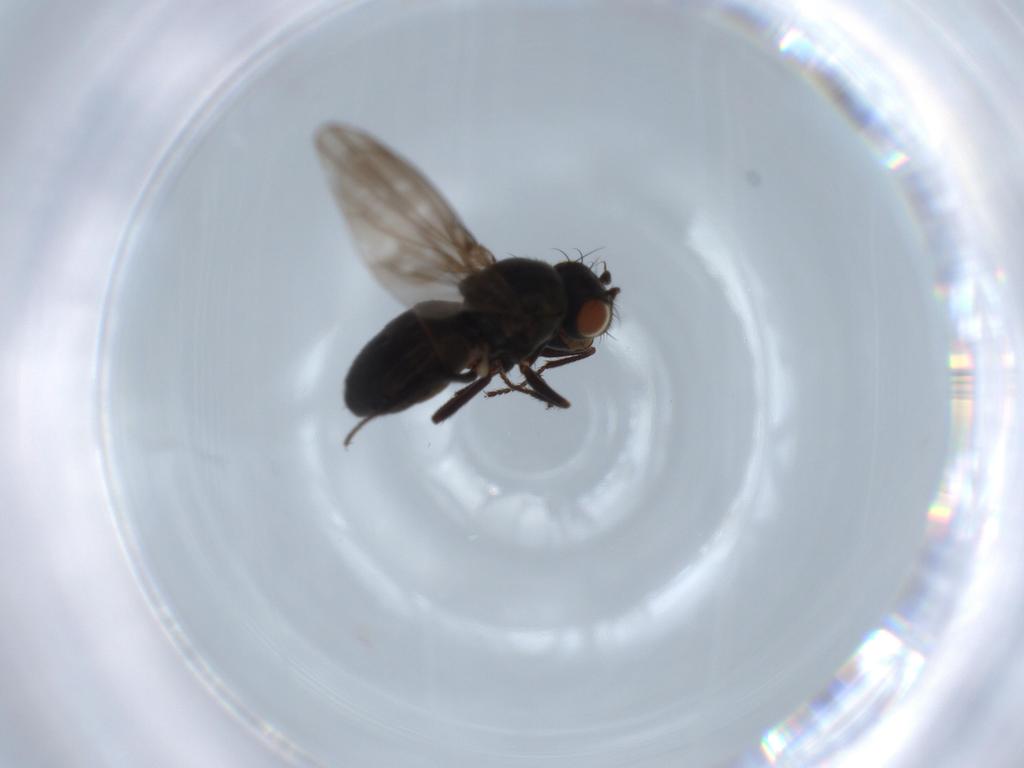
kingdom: Animalia
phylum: Arthropoda
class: Insecta
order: Diptera
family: Ephydridae
